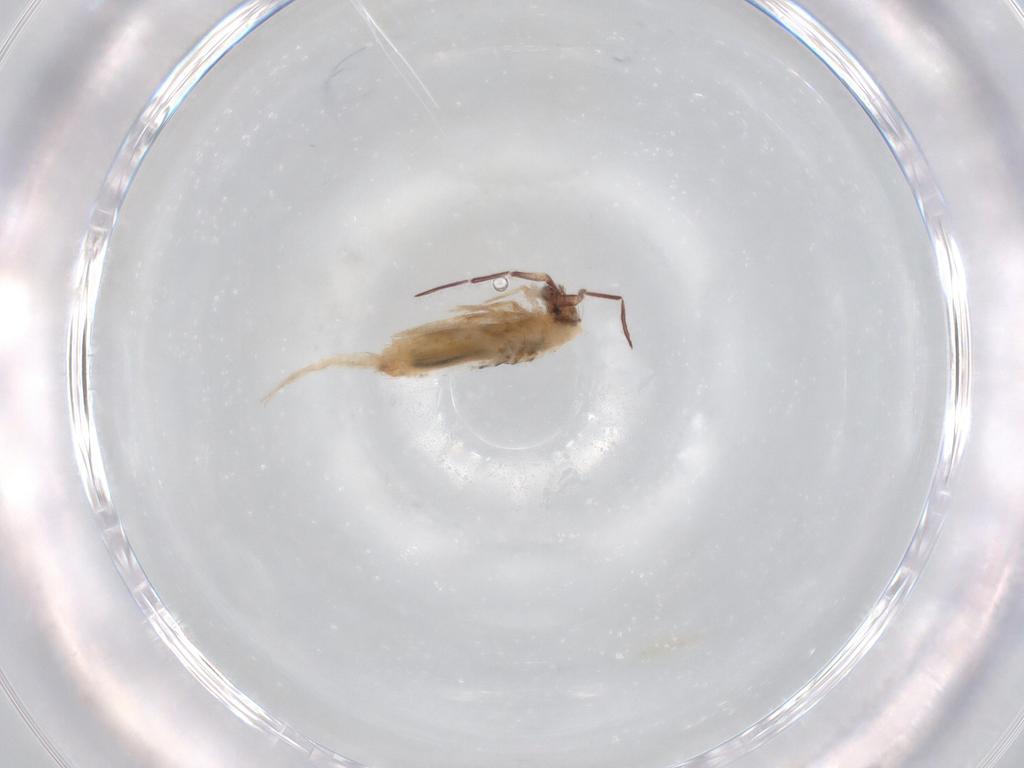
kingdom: Animalia
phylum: Arthropoda
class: Collembola
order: Entomobryomorpha
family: Entomobryidae
